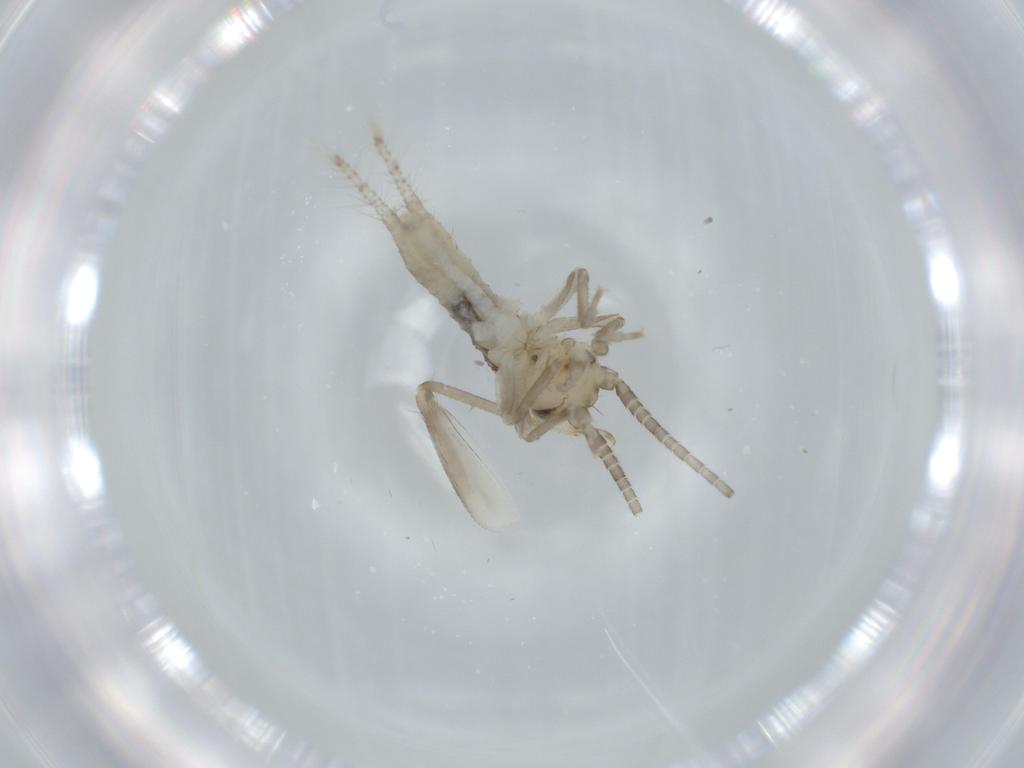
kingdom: Animalia
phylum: Arthropoda
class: Insecta
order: Orthoptera
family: Gryllidae
